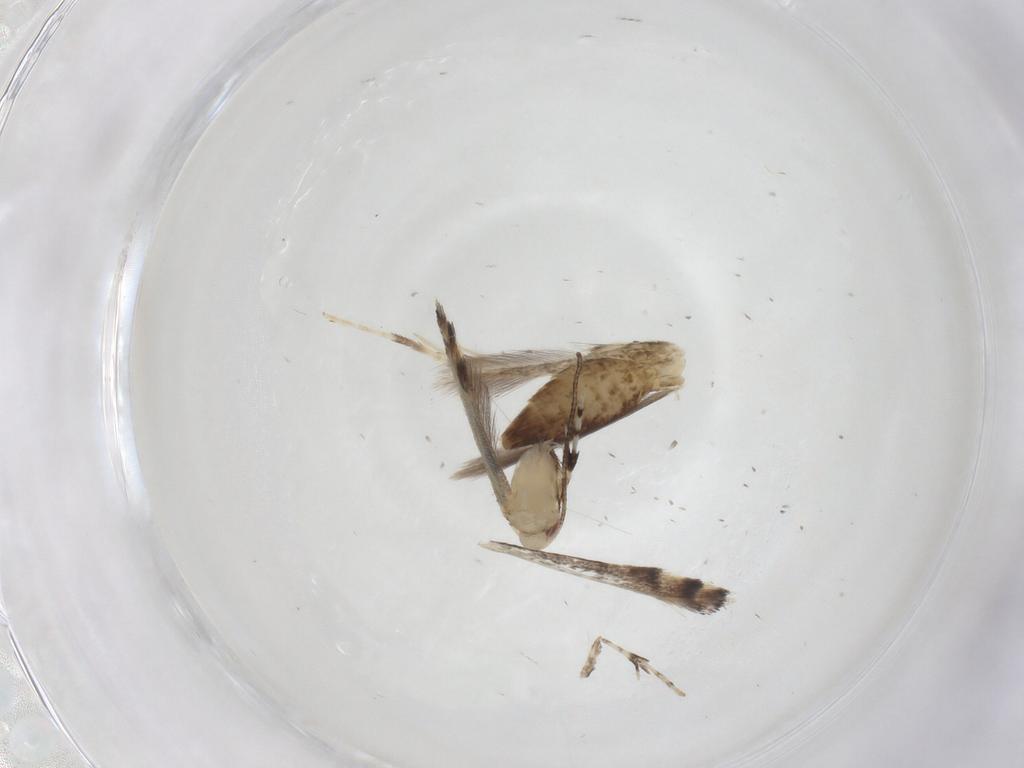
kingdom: Animalia
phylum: Arthropoda
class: Insecta
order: Lepidoptera
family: Gracillariidae
